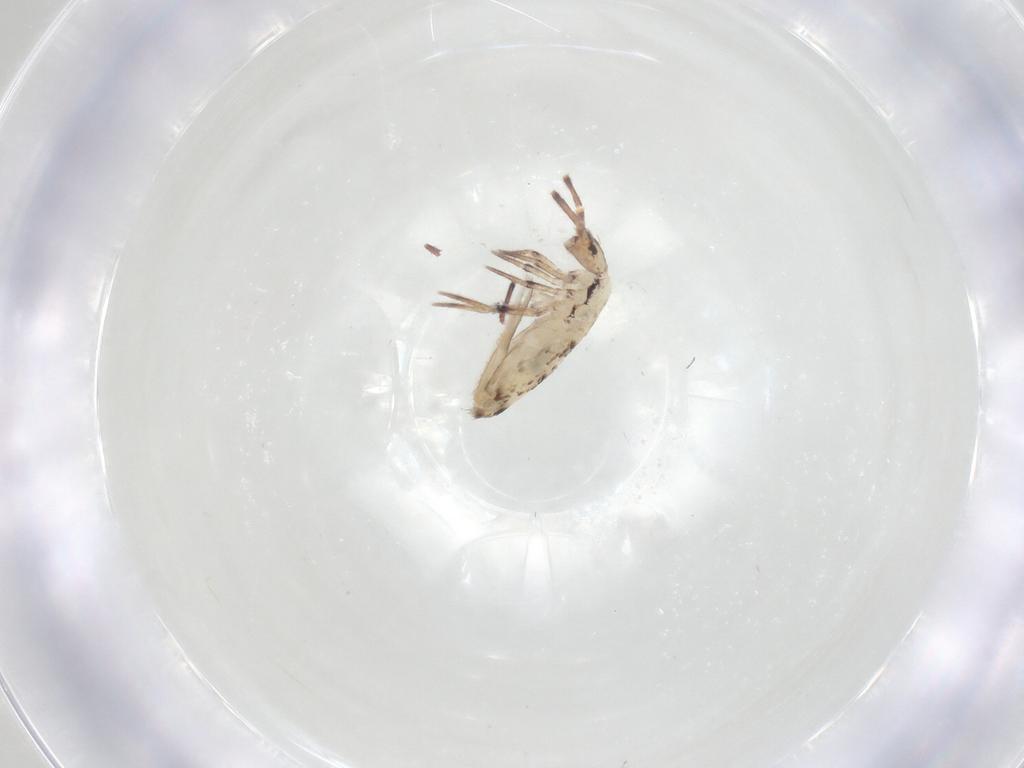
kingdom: Animalia
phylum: Arthropoda
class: Collembola
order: Entomobryomorpha
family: Entomobryidae
